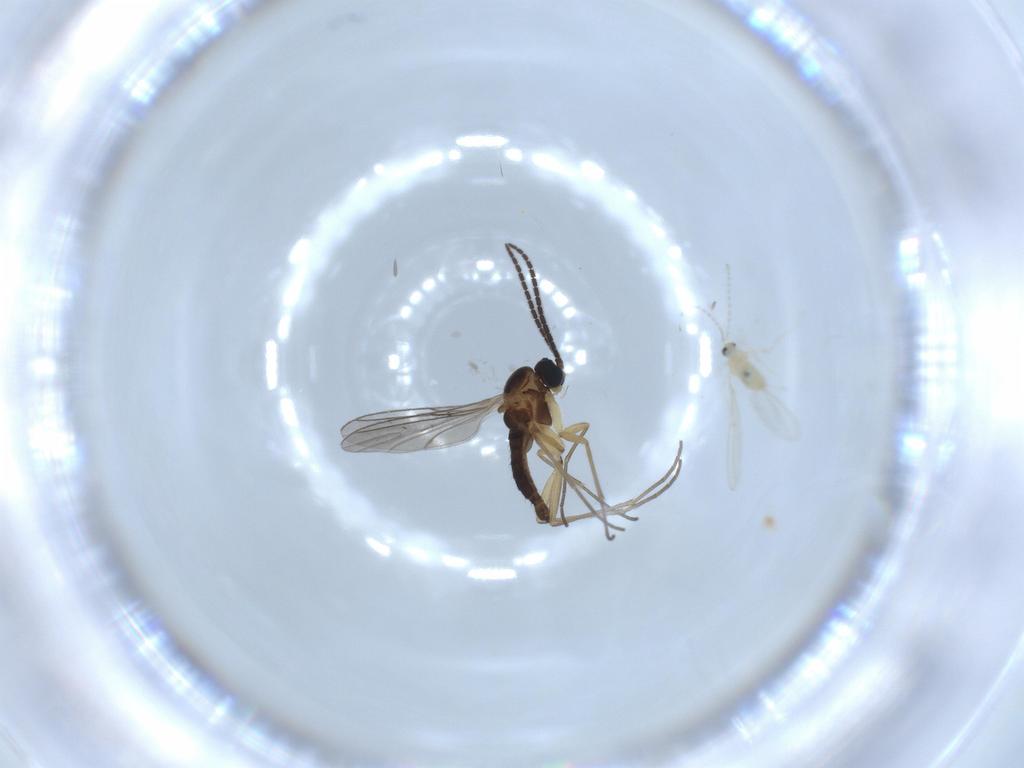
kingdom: Animalia
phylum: Arthropoda
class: Insecta
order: Diptera
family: Cecidomyiidae
